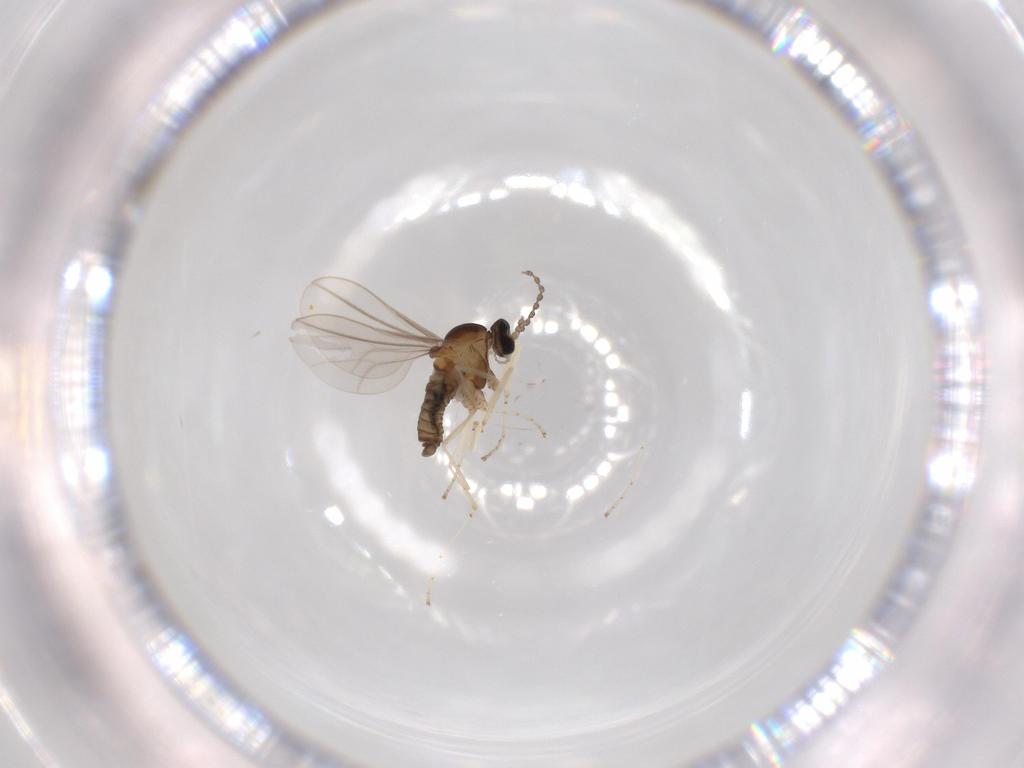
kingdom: Animalia
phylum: Arthropoda
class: Insecta
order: Diptera
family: Cecidomyiidae
